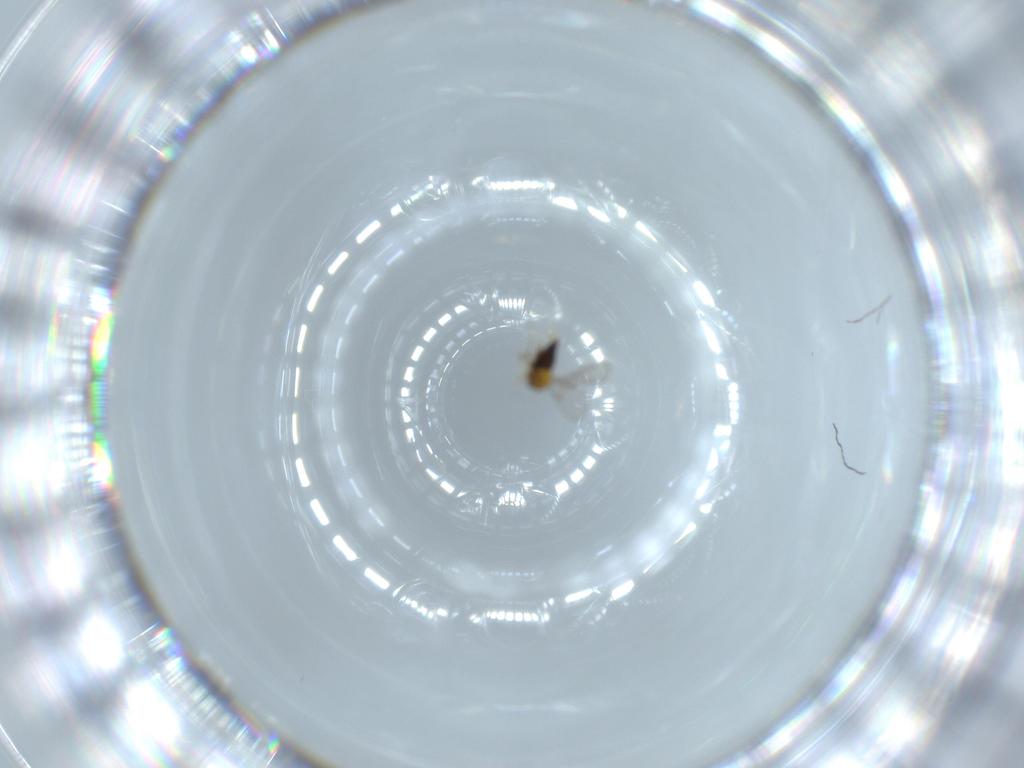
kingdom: Animalia
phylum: Arthropoda
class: Insecta
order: Hymenoptera
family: Trichogrammatidae
